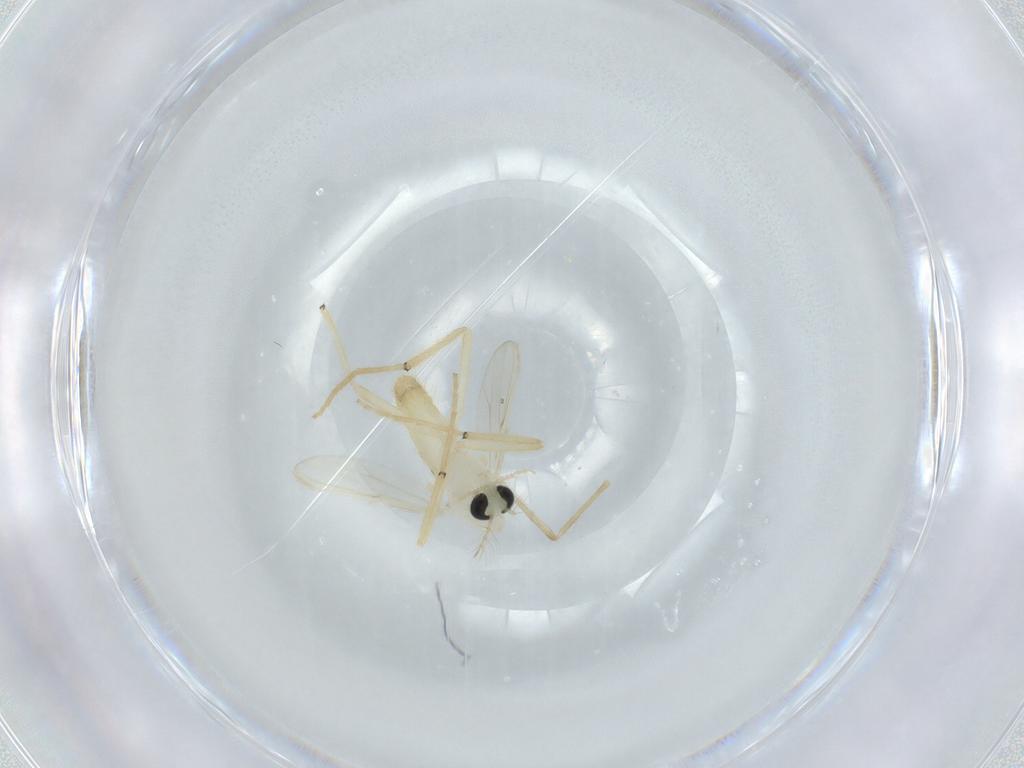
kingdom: Animalia
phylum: Arthropoda
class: Insecta
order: Diptera
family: Chironomidae
